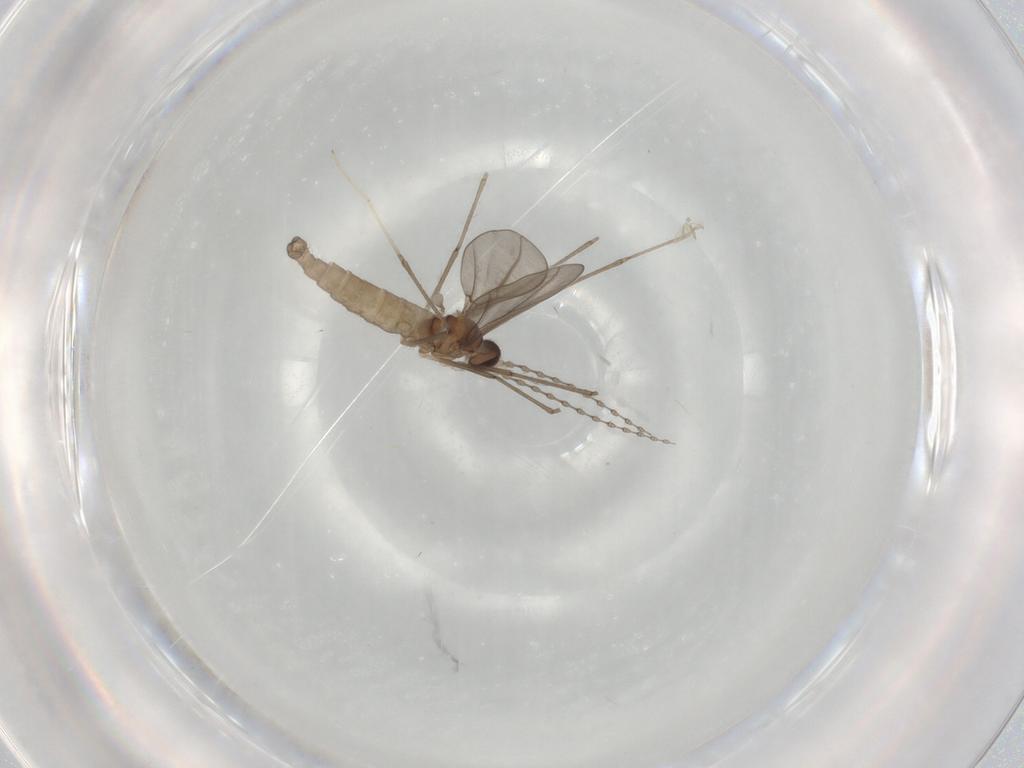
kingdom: Animalia
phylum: Arthropoda
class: Insecta
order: Diptera
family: Cecidomyiidae
